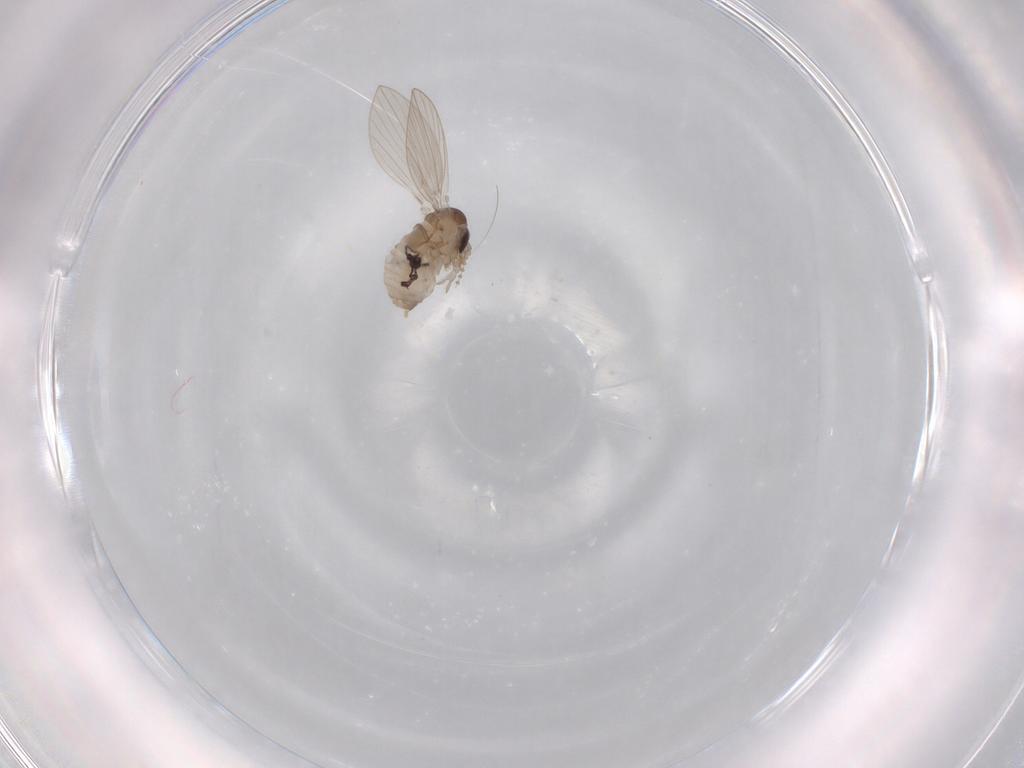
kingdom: Animalia
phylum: Arthropoda
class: Insecta
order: Diptera
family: Psychodidae
